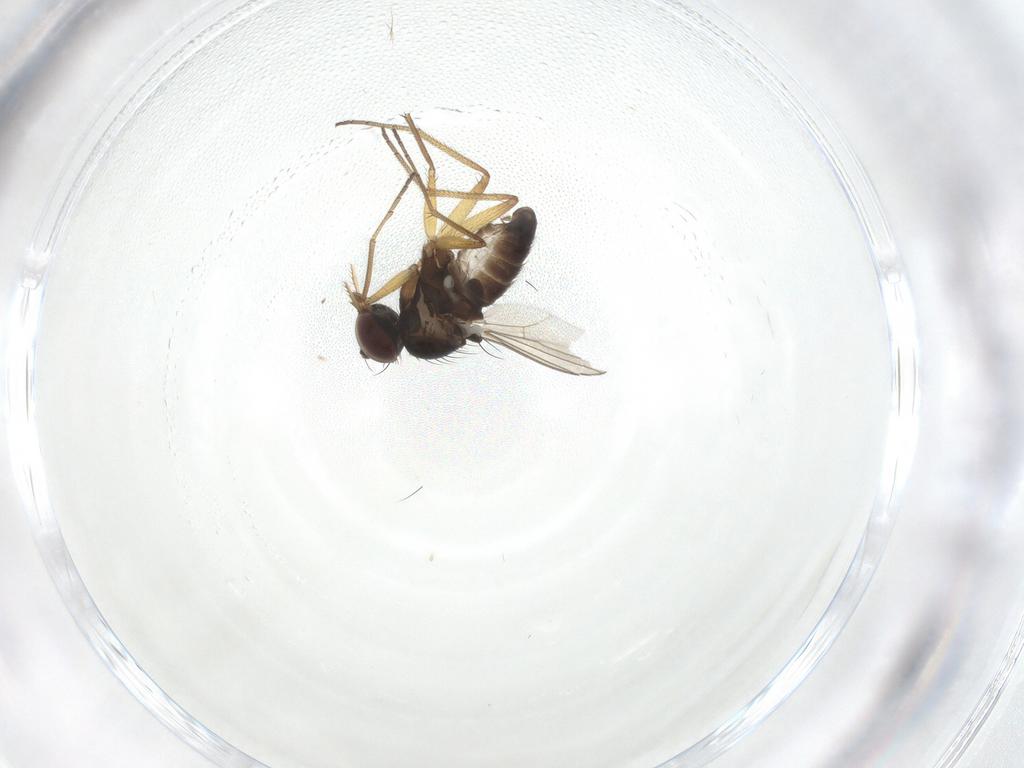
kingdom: Animalia
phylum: Arthropoda
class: Insecta
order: Diptera
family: Dolichopodidae
